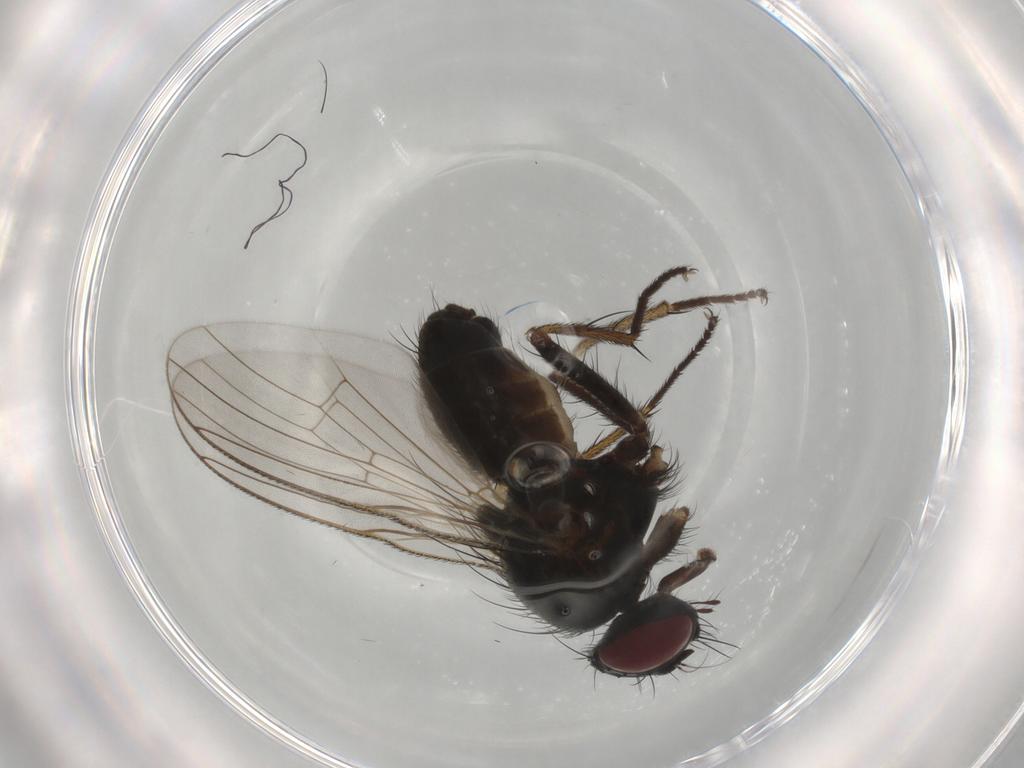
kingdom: Animalia
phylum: Arthropoda
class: Insecta
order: Diptera
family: Muscidae
